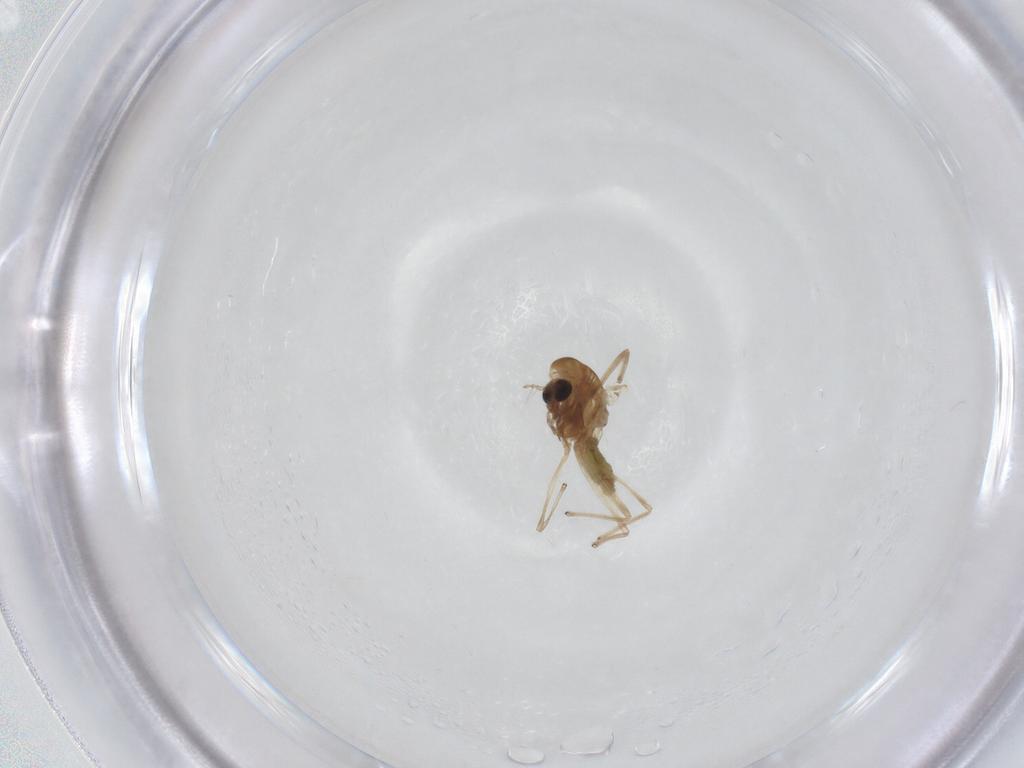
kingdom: Animalia
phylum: Arthropoda
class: Insecta
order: Diptera
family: Chironomidae
